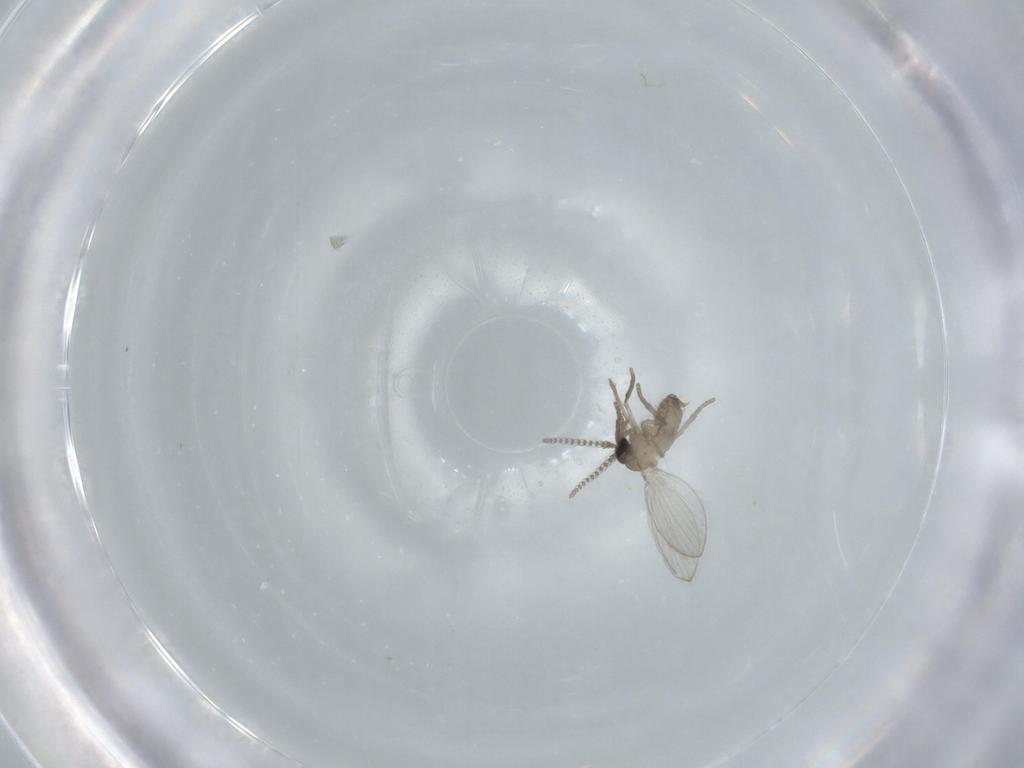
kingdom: Animalia
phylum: Arthropoda
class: Insecta
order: Diptera
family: Psychodidae
